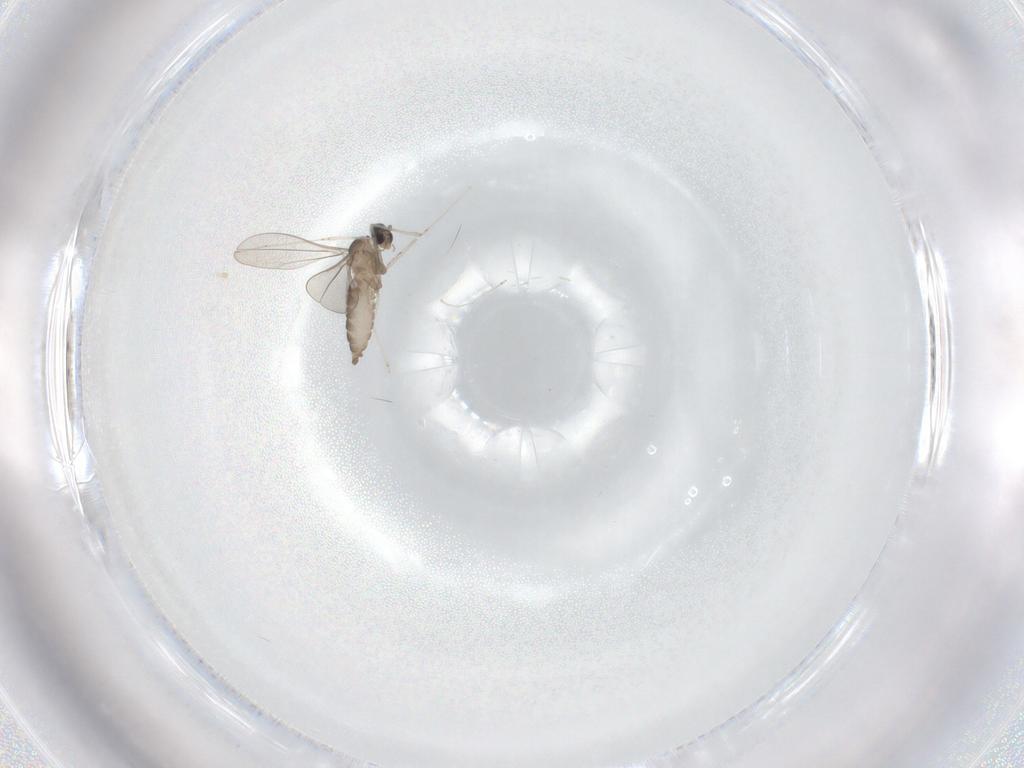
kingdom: Animalia
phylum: Arthropoda
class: Insecta
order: Diptera
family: Cecidomyiidae
